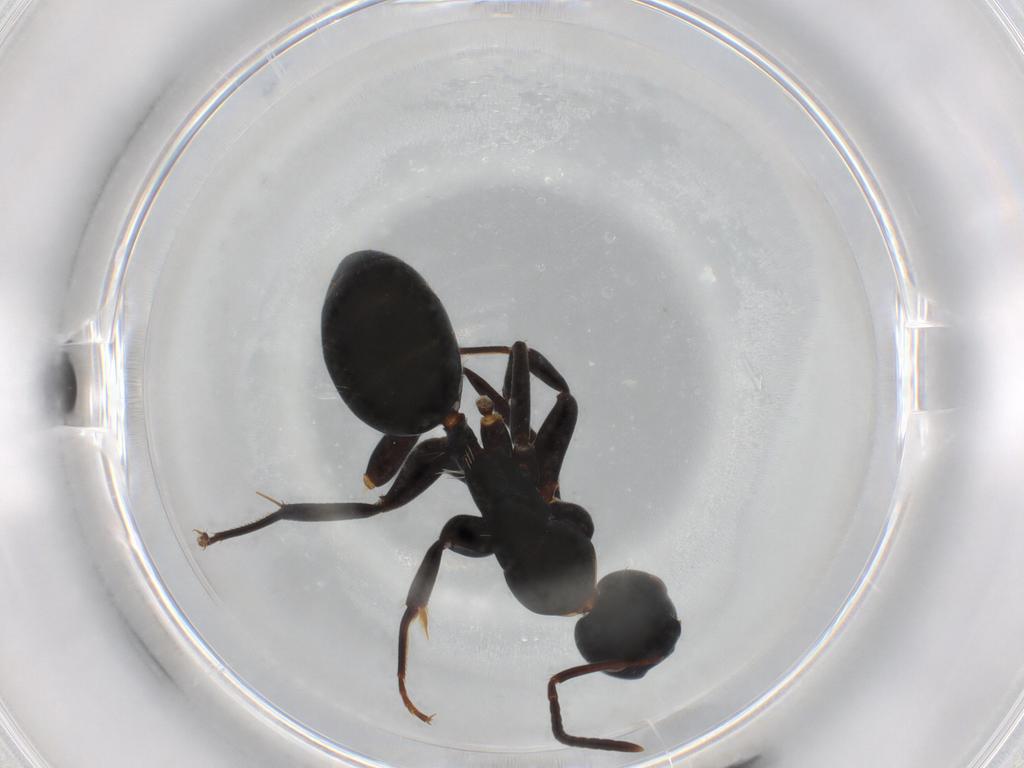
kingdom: Animalia
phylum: Arthropoda
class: Insecta
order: Hymenoptera
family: Formicidae
